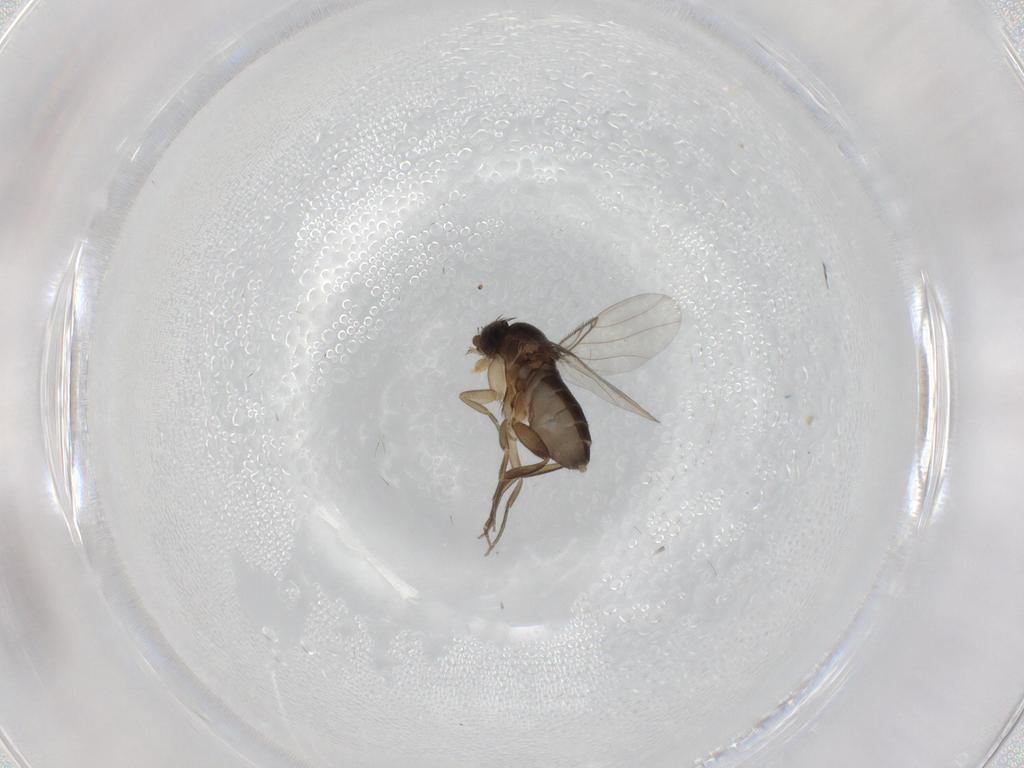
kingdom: Animalia
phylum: Arthropoda
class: Insecta
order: Diptera
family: Phoridae
